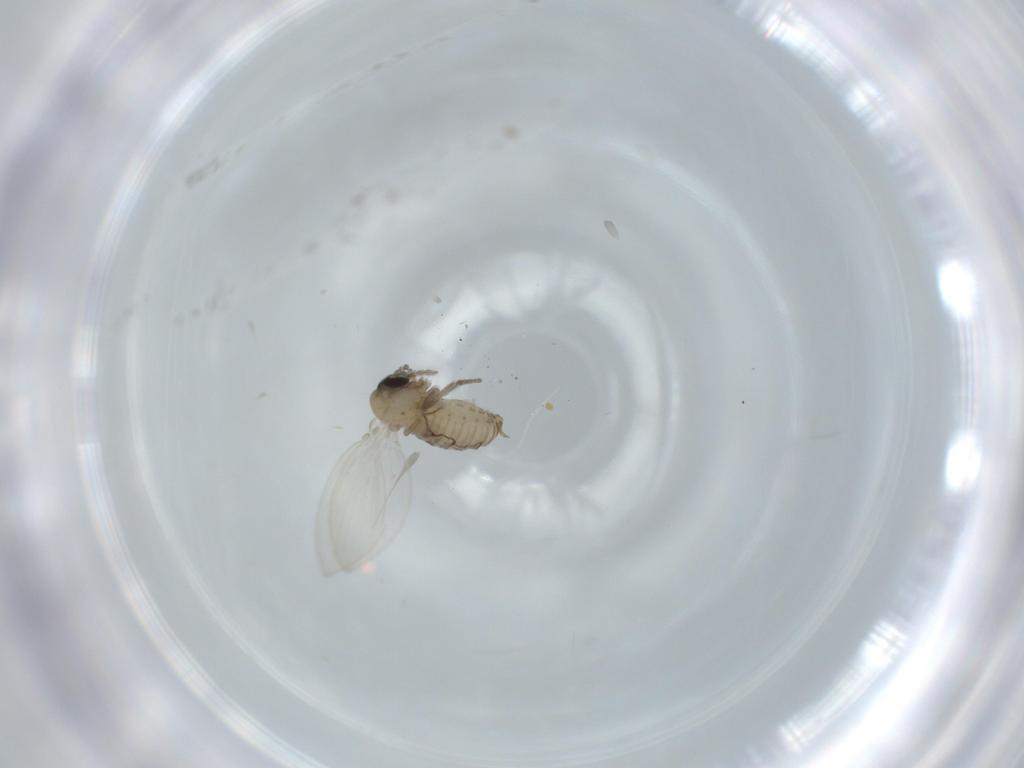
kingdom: Animalia
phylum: Arthropoda
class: Insecta
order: Diptera
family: Psychodidae
